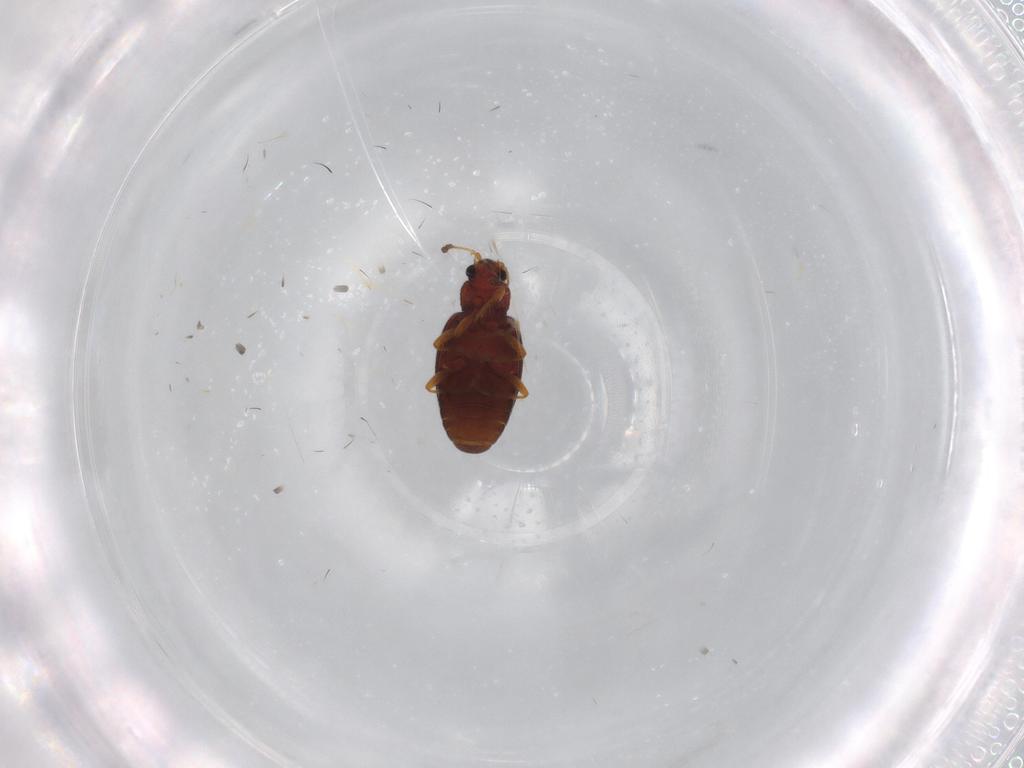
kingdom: Animalia
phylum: Arthropoda
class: Insecta
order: Coleoptera
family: Latridiidae
